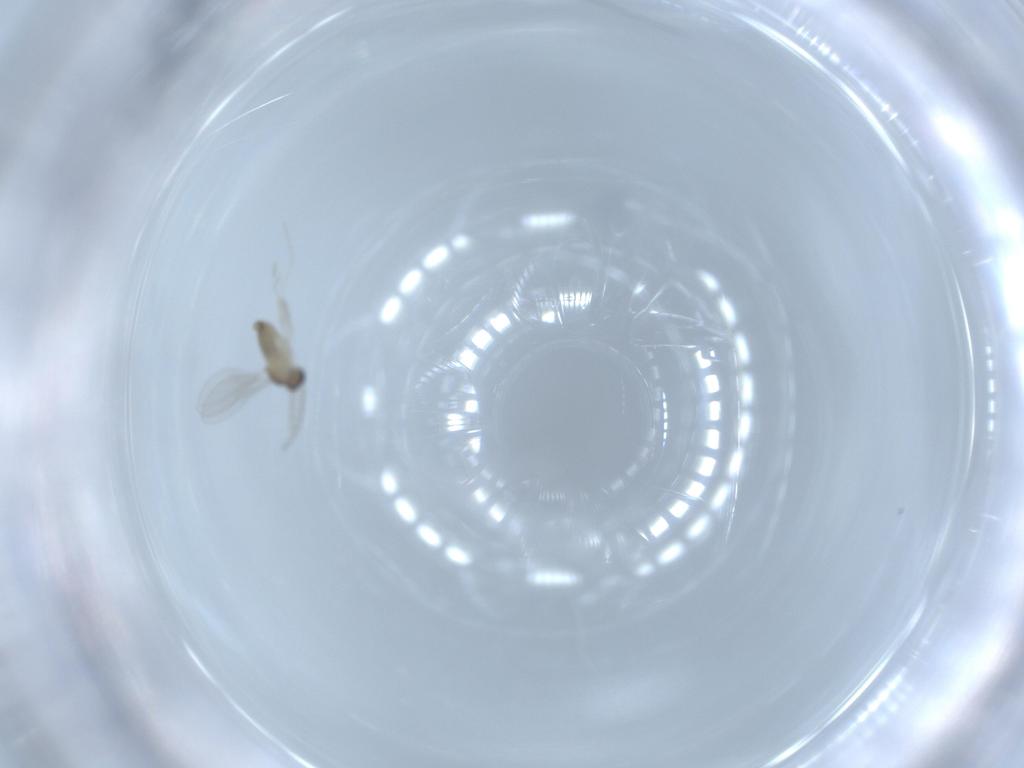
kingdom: Animalia
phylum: Arthropoda
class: Insecta
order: Diptera
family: Cecidomyiidae
